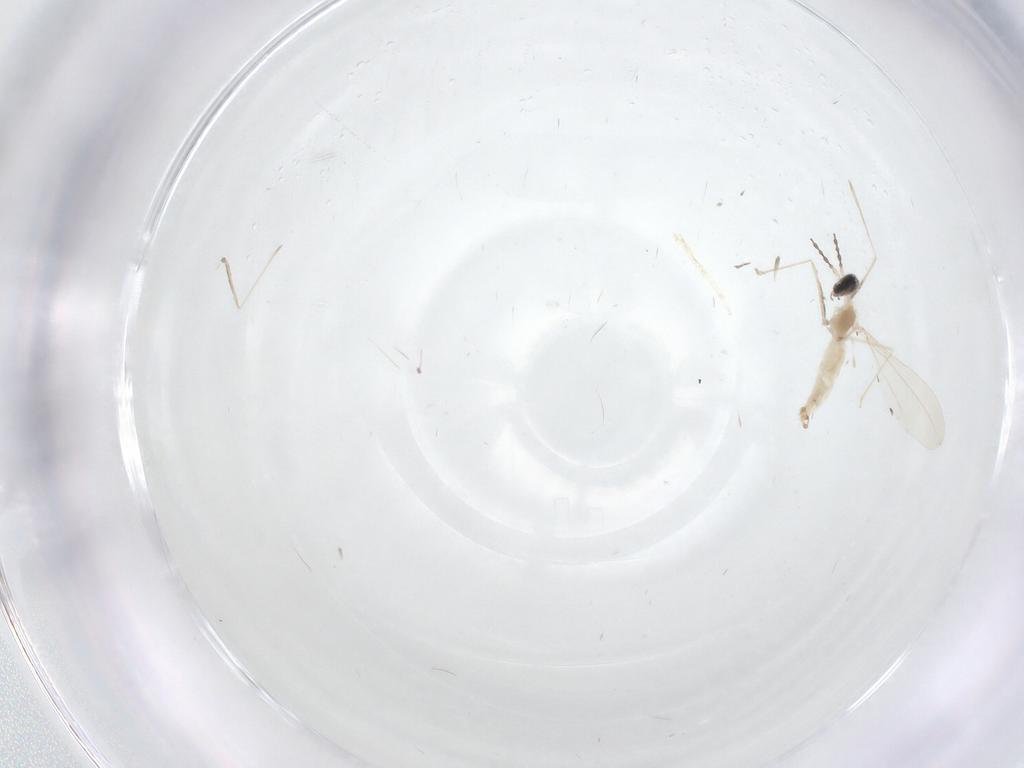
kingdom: Animalia
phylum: Arthropoda
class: Insecta
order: Diptera
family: Cecidomyiidae
